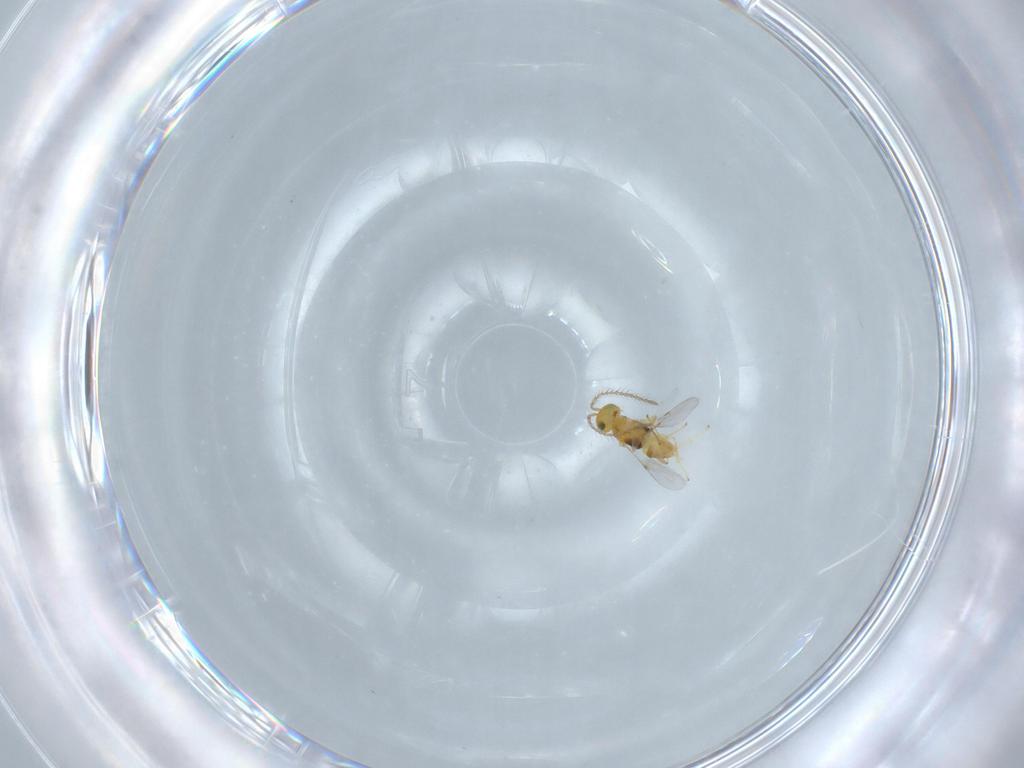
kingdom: Animalia
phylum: Arthropoda
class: Insecta
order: Hymenoptera
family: Encyrtidae
